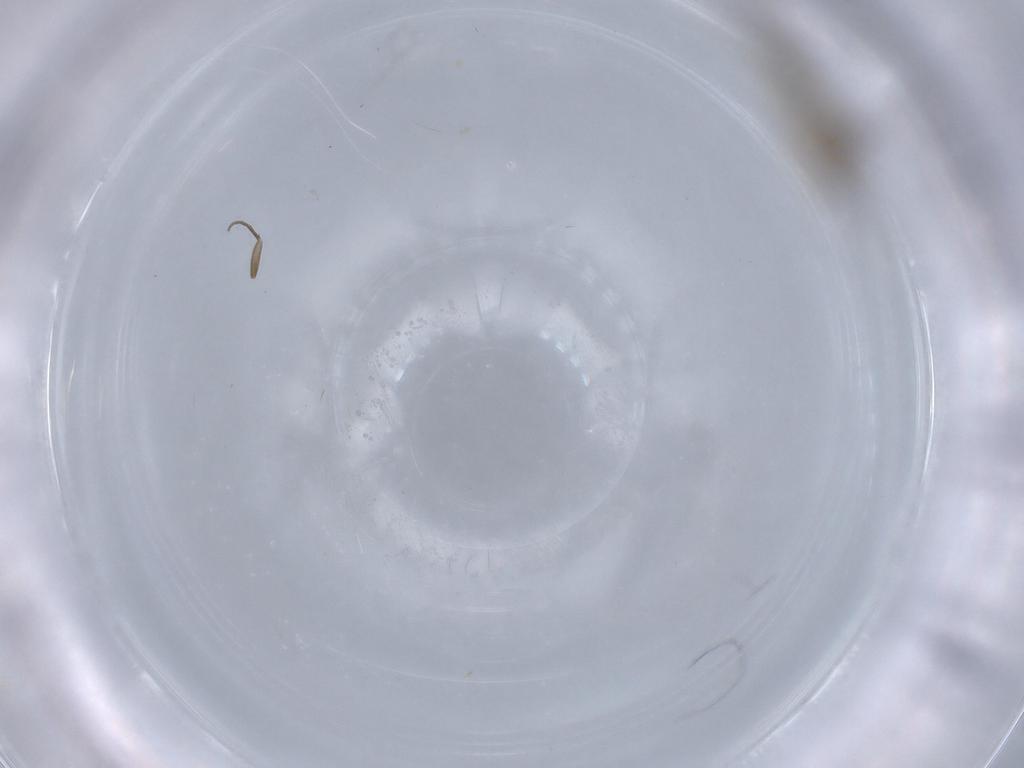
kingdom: Animalia
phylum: Arthropoda
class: Insecta
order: Diptera
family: Cecidomyiidae
